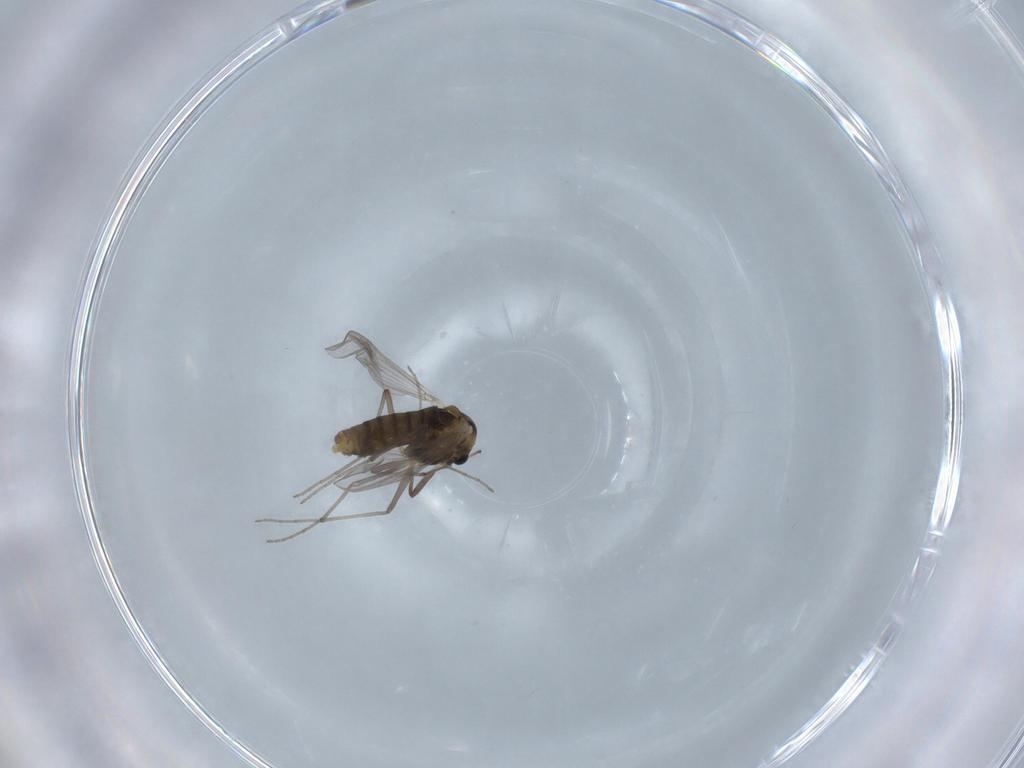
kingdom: Animalia
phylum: Arthropoda
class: Insecta
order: Diptera
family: Chironomidae
